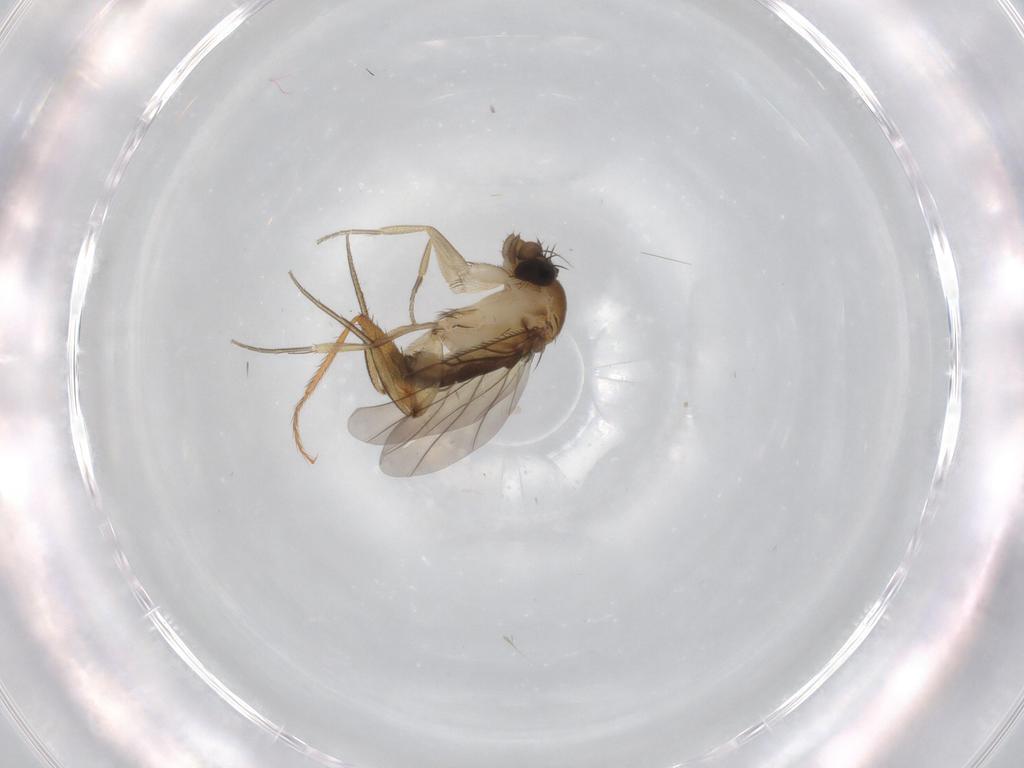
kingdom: Animalia
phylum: Arthropoda
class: Insecta
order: Diptera
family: Phoridae
